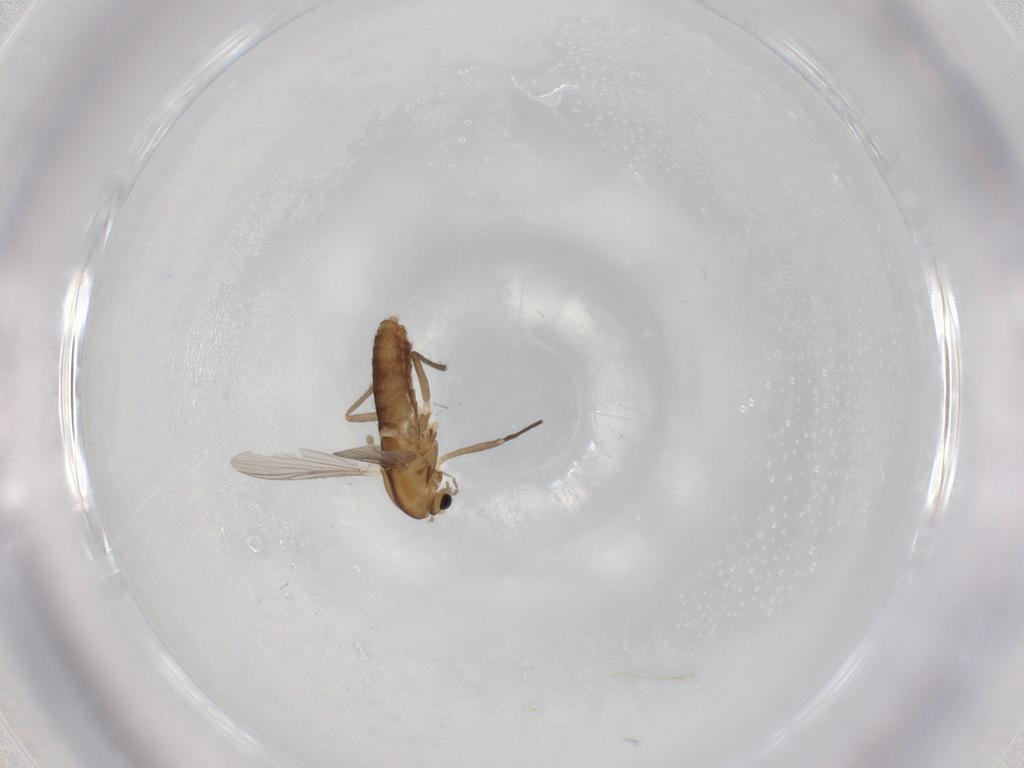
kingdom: Animalia
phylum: Arthropoda
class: Insecta
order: Diptera
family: Chironomidae
